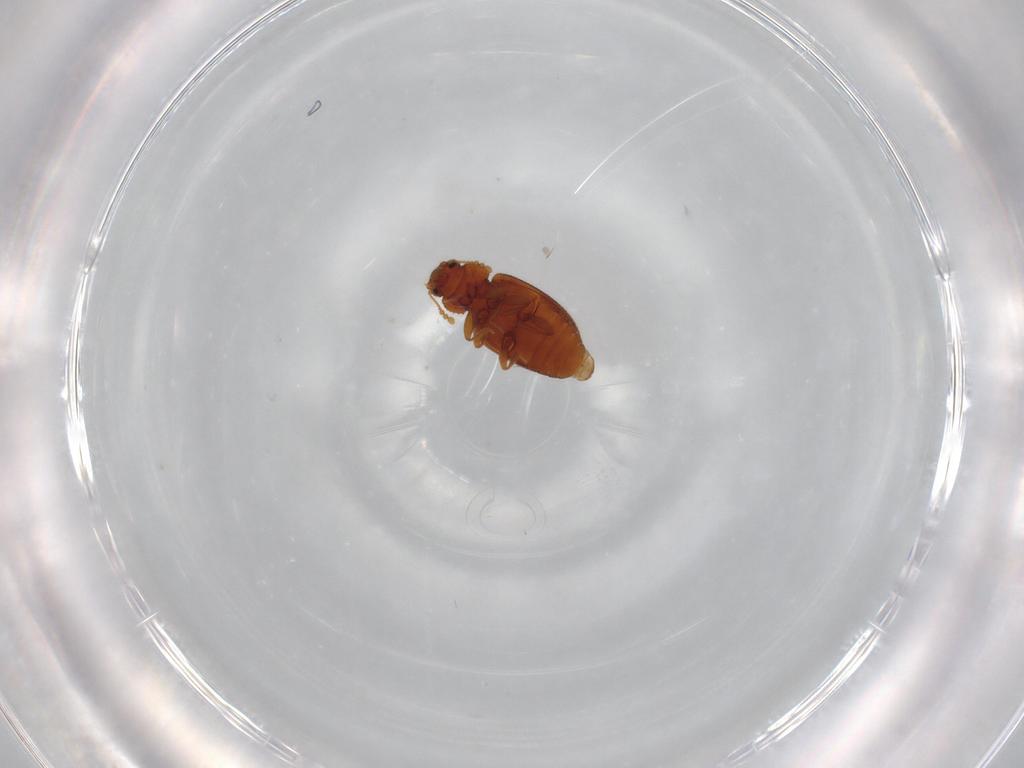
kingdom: Animalia
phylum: Arthropoda
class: Insecta
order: Coleoptera
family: Latridiidae
